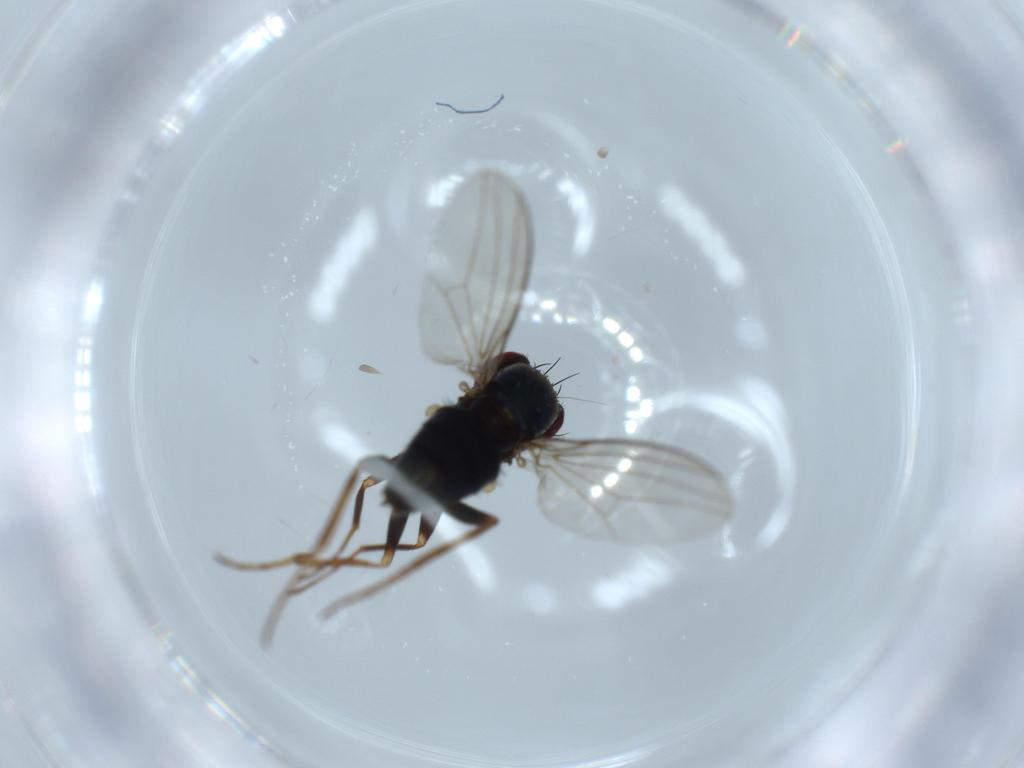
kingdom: Animalia
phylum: Arthropoda
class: Insecta
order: Diptera
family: Dolichopodidae
